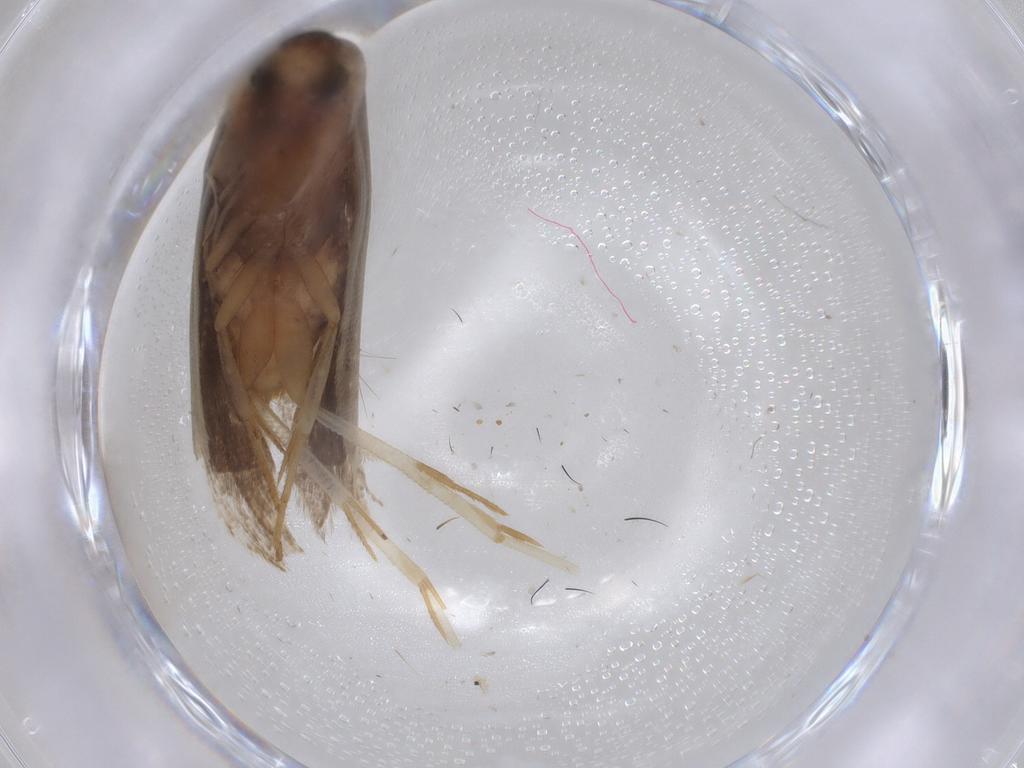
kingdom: Animalia
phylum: Arthropoda
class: Insecta
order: Lepidoptera
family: Gelechiidae
